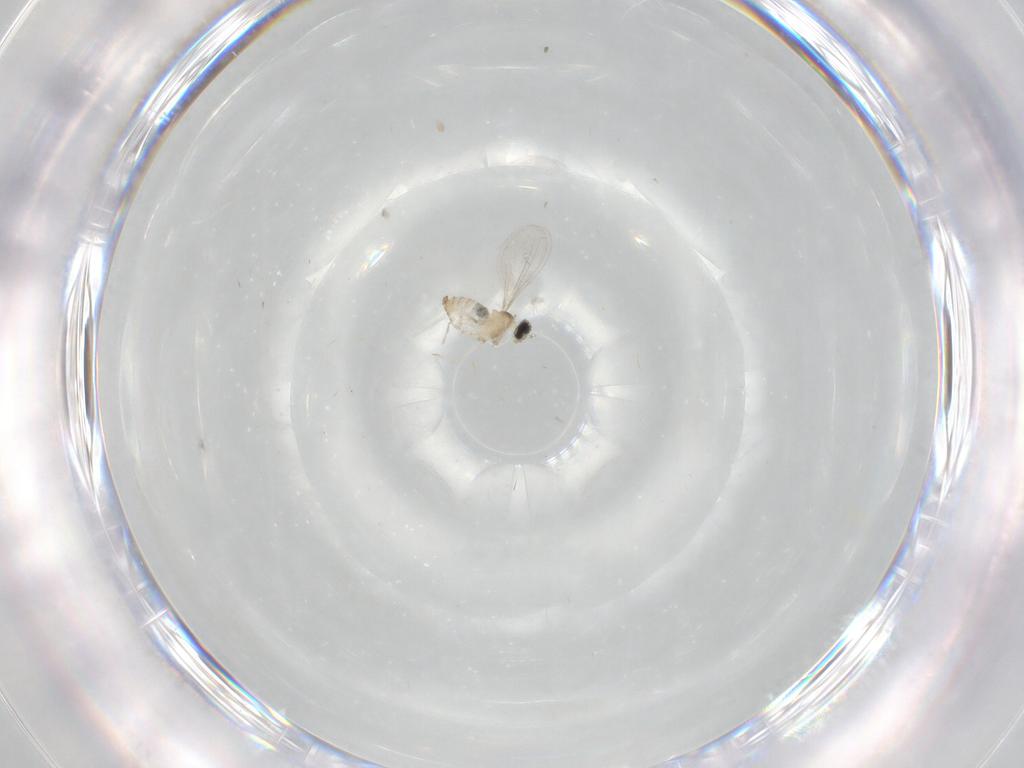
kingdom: Animalia
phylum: Arthropoda
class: Insecta
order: Diptera
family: Cecidomyiidae
